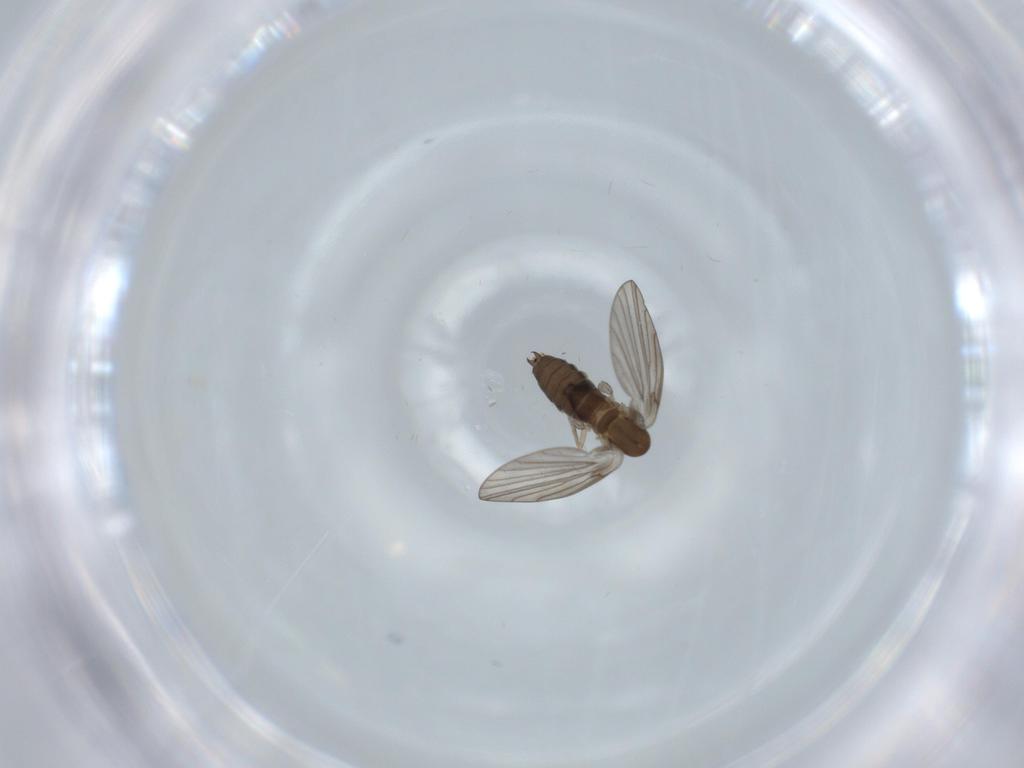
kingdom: Animalia
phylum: Arthropoda
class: Insecta
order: Diptera
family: Psychodidae
